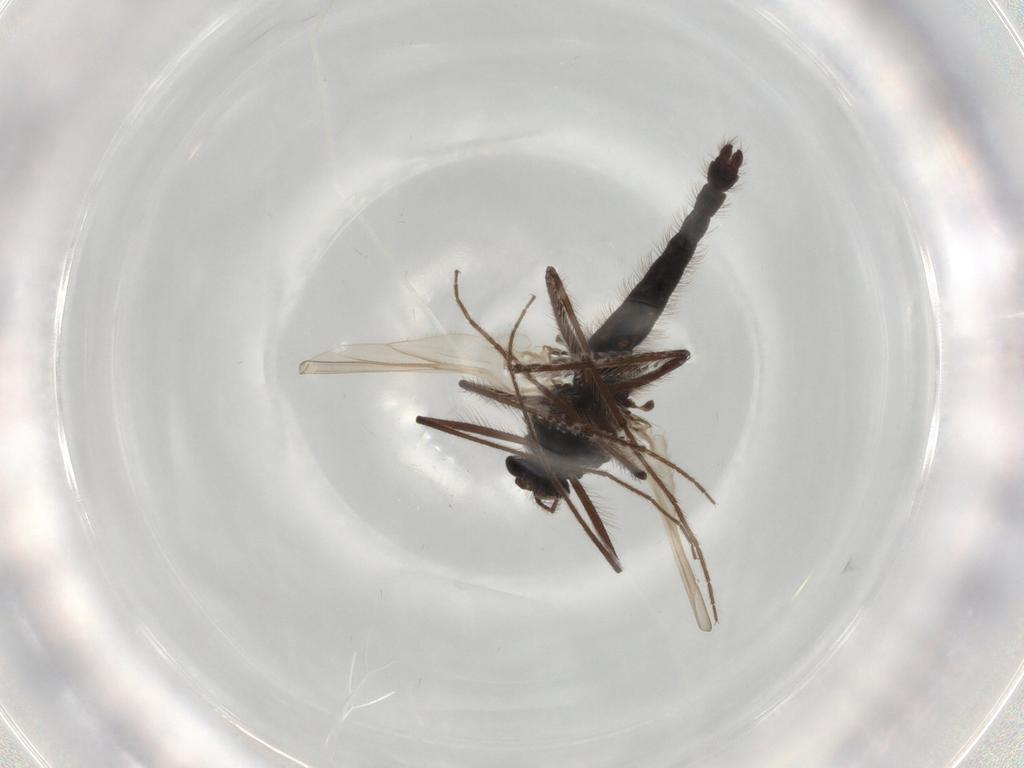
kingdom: Animalia
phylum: Arthropoda
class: Insecta
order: Diptera
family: Sphaeroceridae
